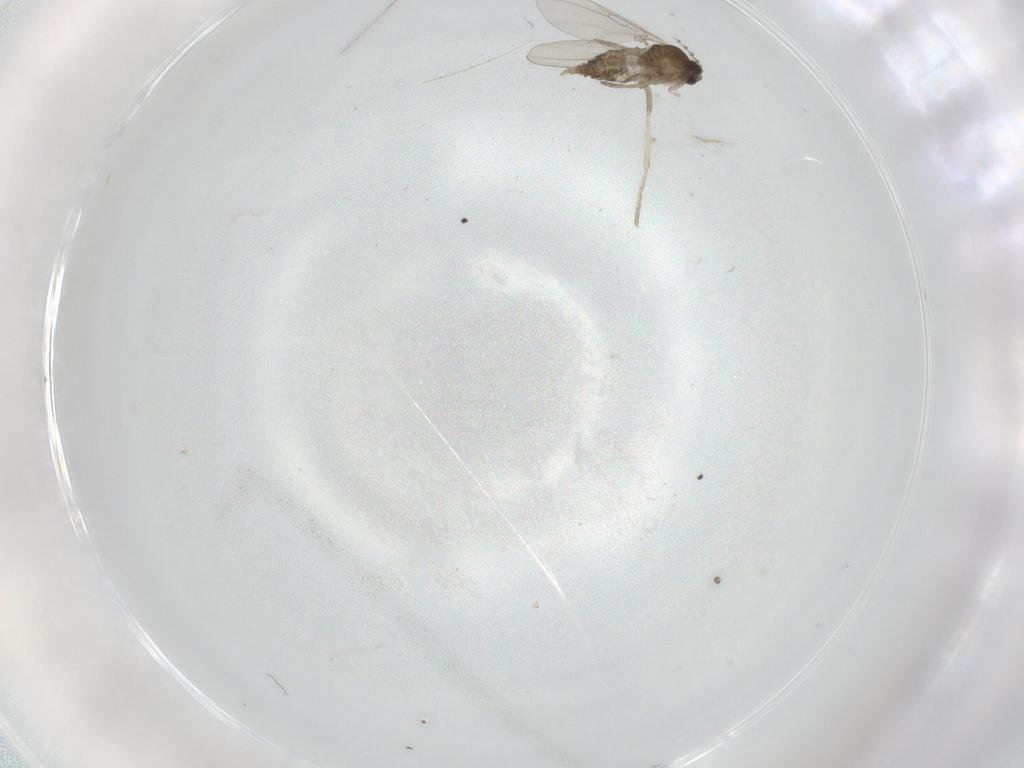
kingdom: Animalia
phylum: Arthropoda
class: Insecta
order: Diptera
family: Cecidomyiidae
